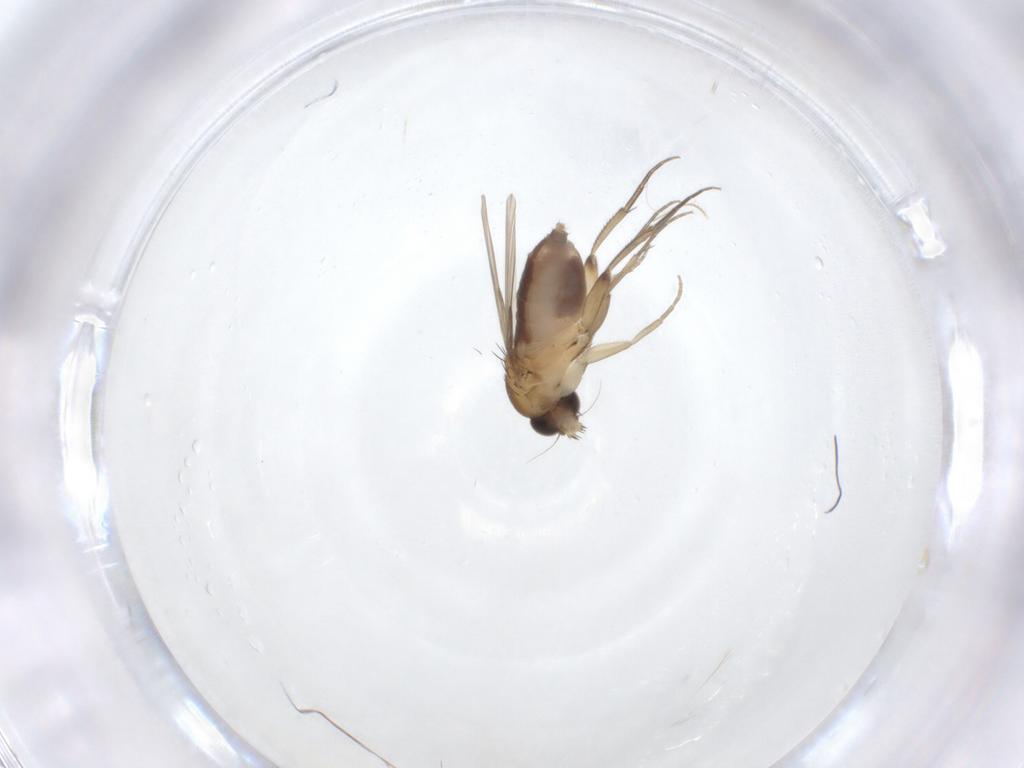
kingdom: Animalia
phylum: Arthropoda
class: Insecta
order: Diptera
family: Phoridae
